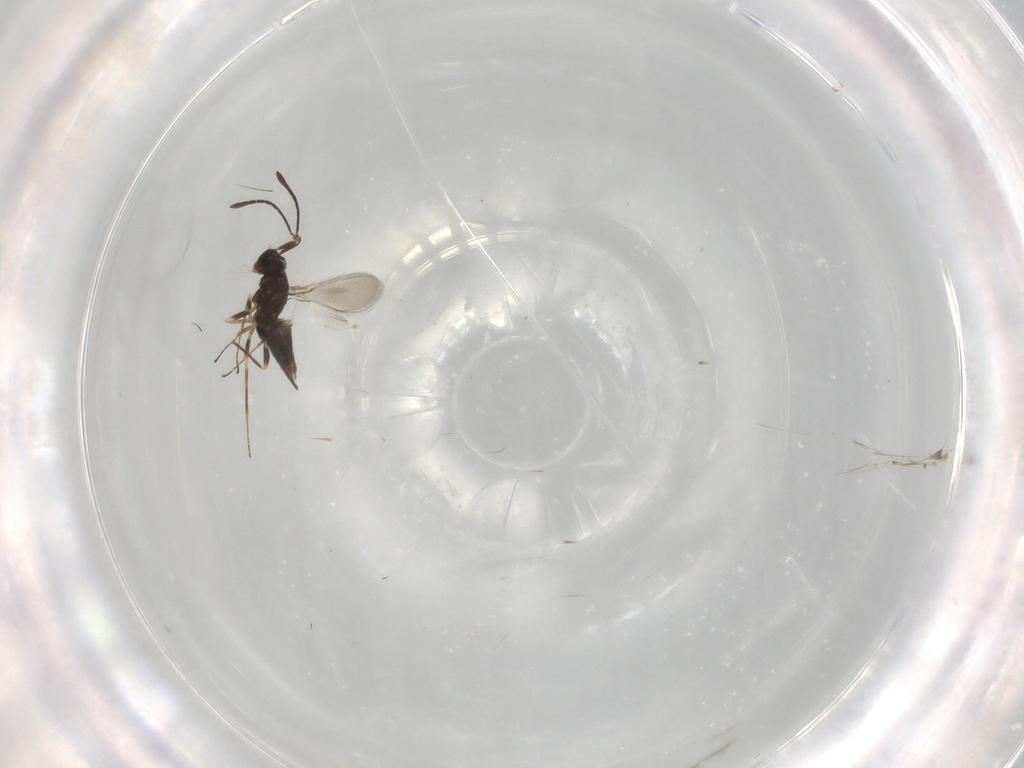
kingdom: Animalia
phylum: Arthropoda
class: Insecta
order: Hymenoptera
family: Mymaridae
